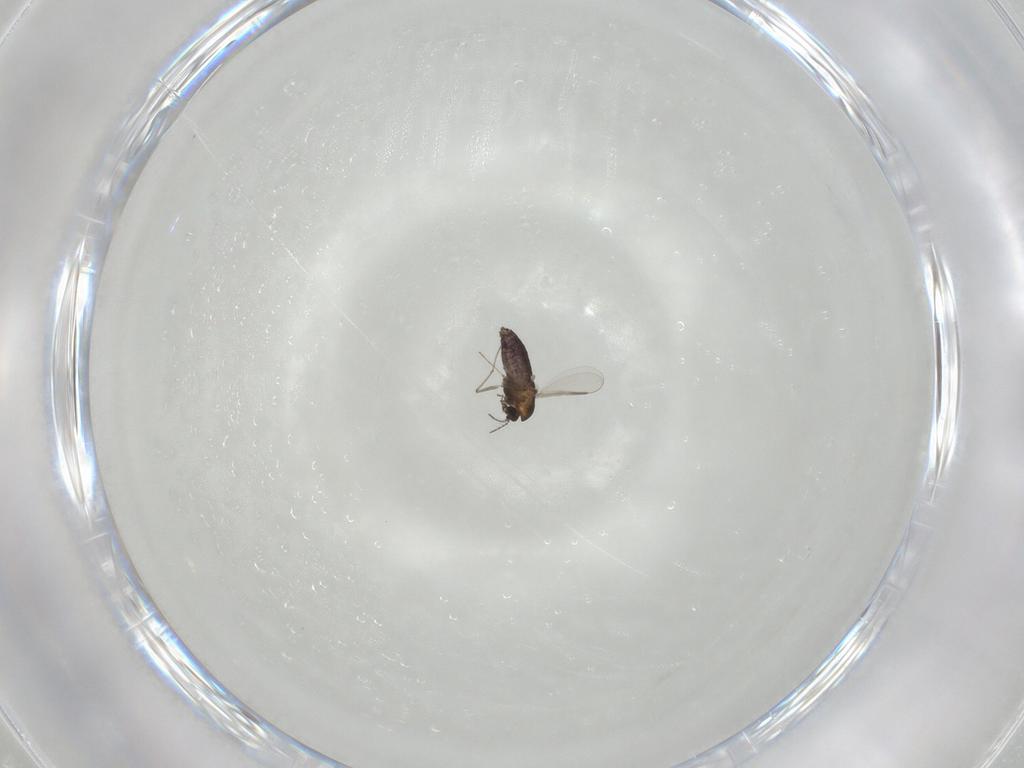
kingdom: Animalia
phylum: Arthropoda
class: Insecta
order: Diptera
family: Chironomidae
